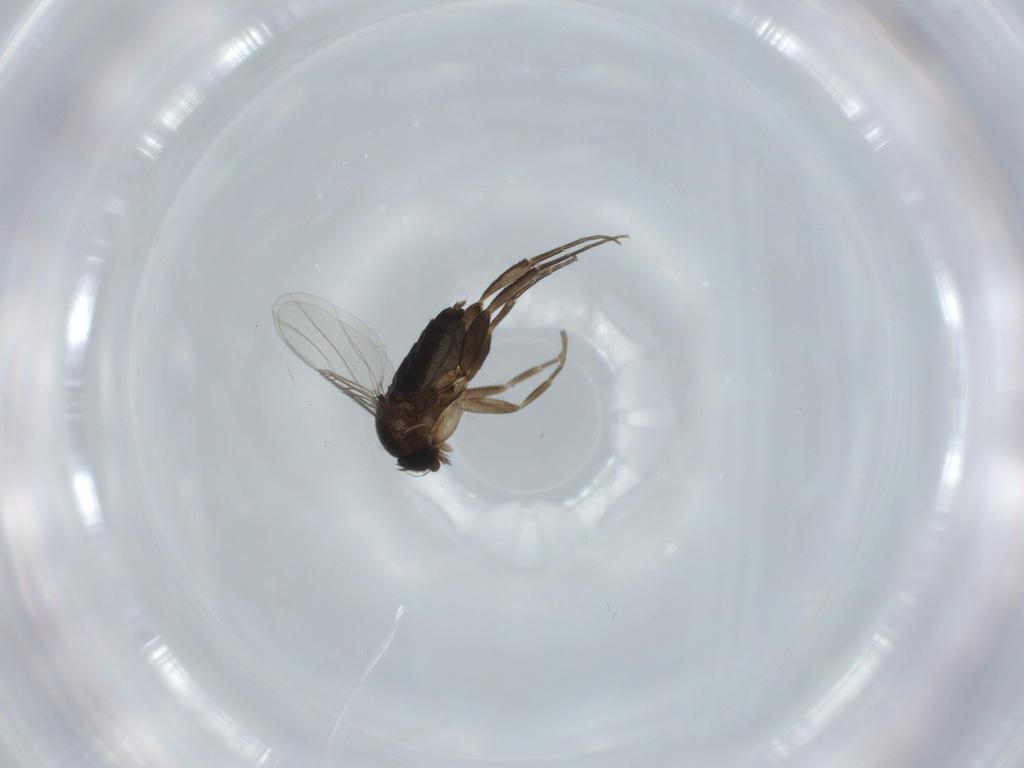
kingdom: Animalia
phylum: Arthropoda
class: Insecta
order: Diptera
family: Phoridae
